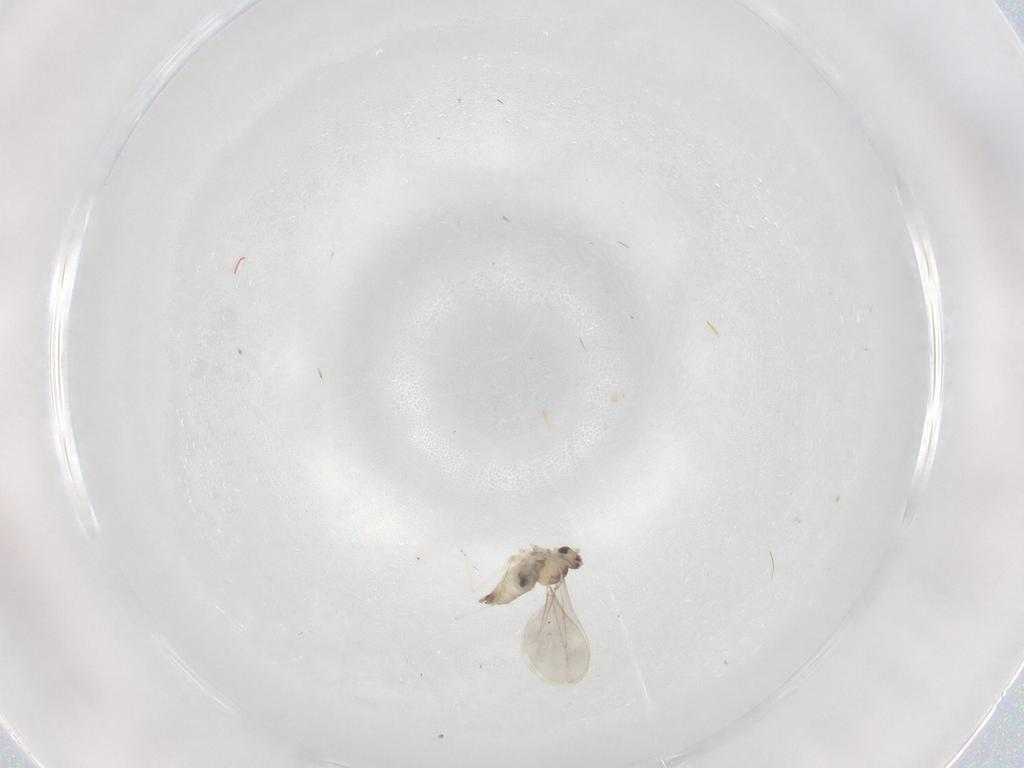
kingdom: Animalia
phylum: Arthropoda
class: Insecta
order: Diptera
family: Cecidomyiidae
